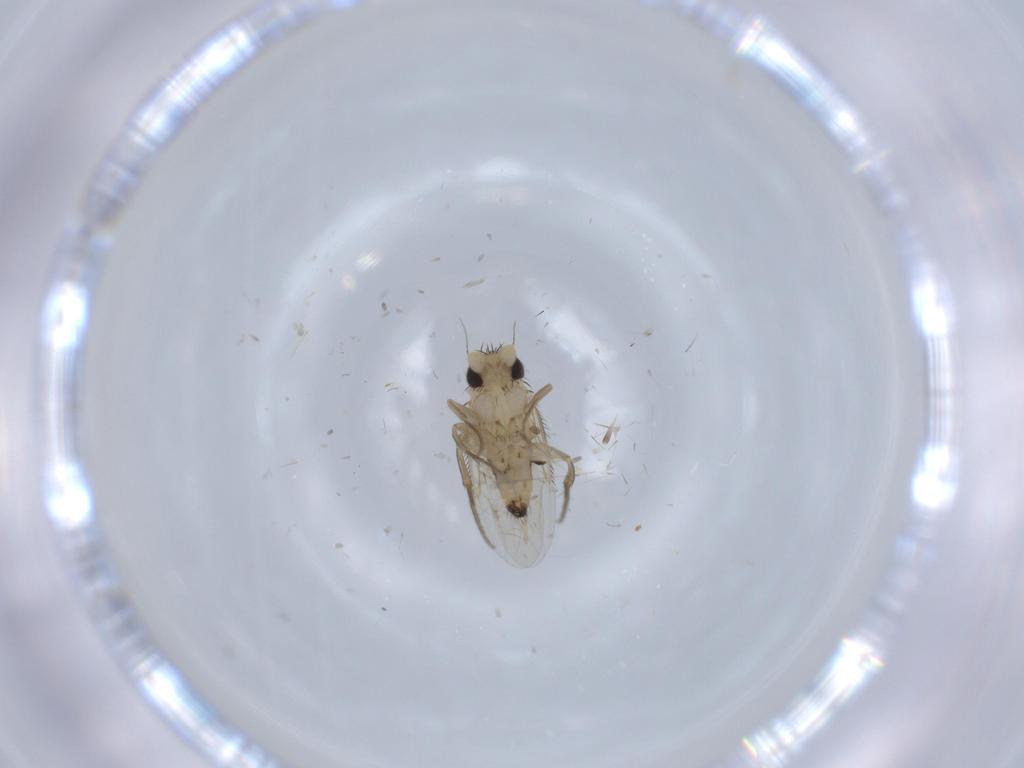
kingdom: Animalia
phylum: Arthropoda
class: Insecta
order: Diptera
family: Phoridae
